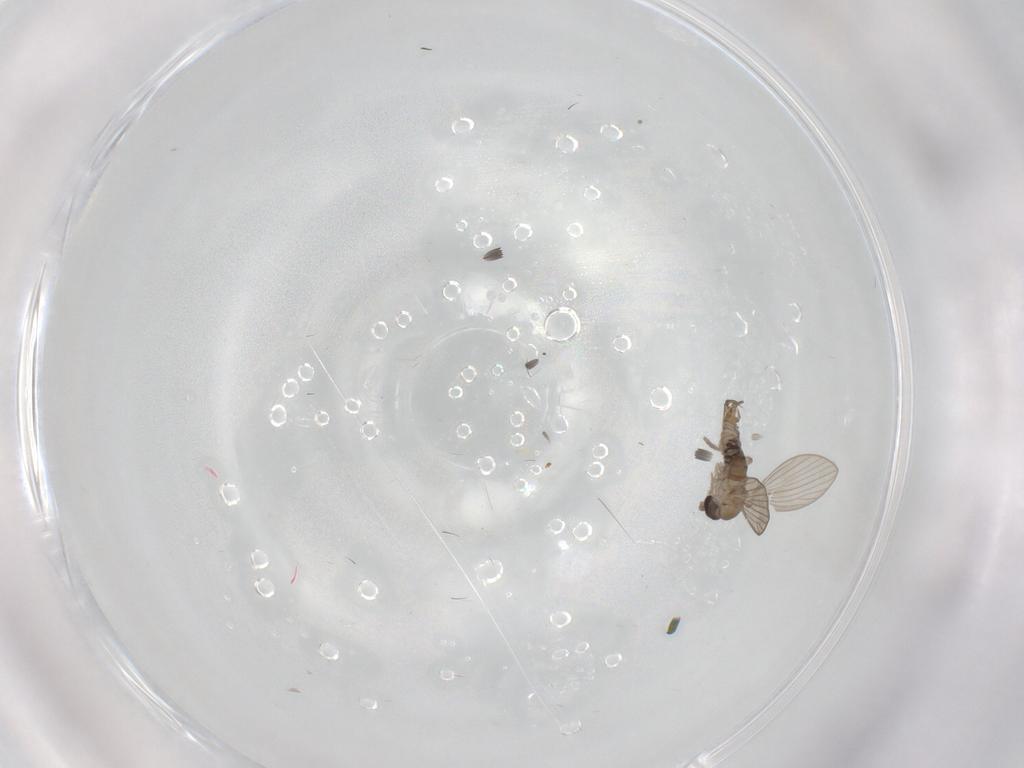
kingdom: Animalia
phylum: Arthropoda
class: Insecta
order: Diptera
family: Psychodidae
